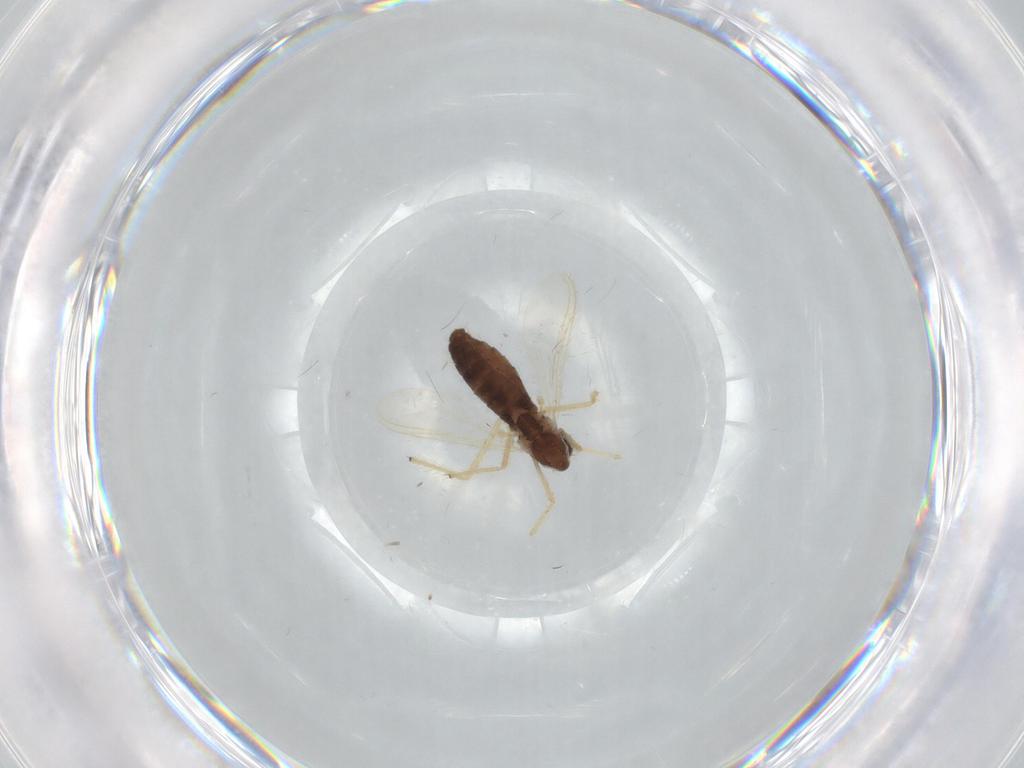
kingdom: Animalia
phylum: Arthropoda
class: Insecta
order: Diptera
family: Chironomidae
